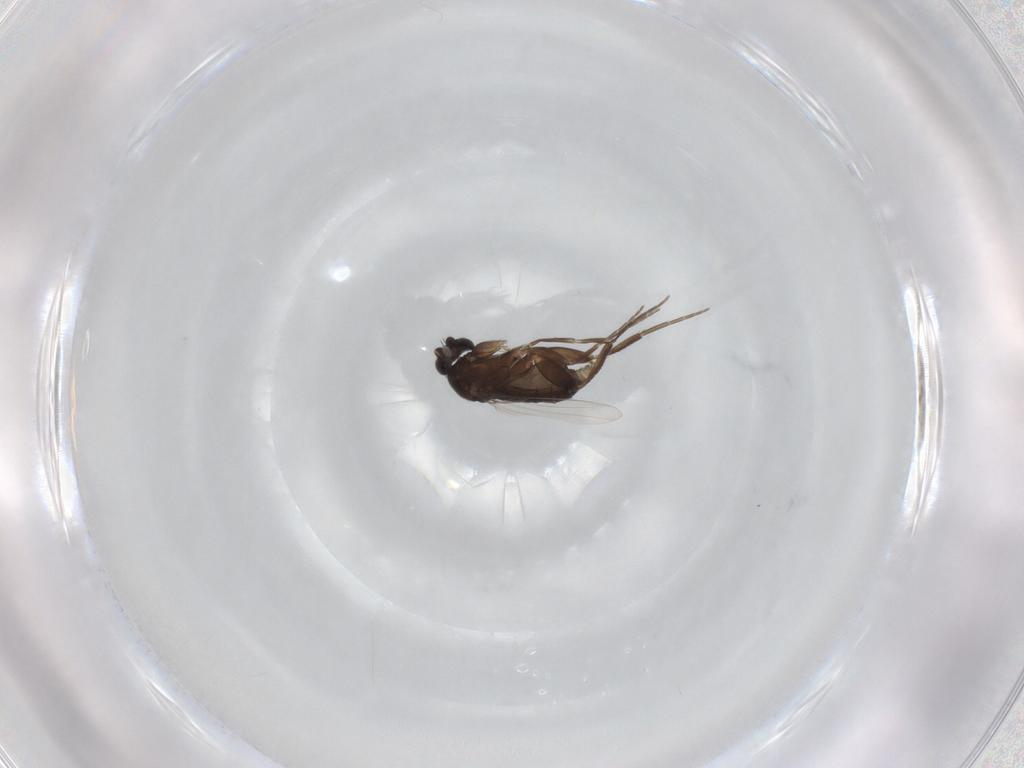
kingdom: Animalia
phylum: Arthropoda
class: Insecta
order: Diptera
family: Phoridae
